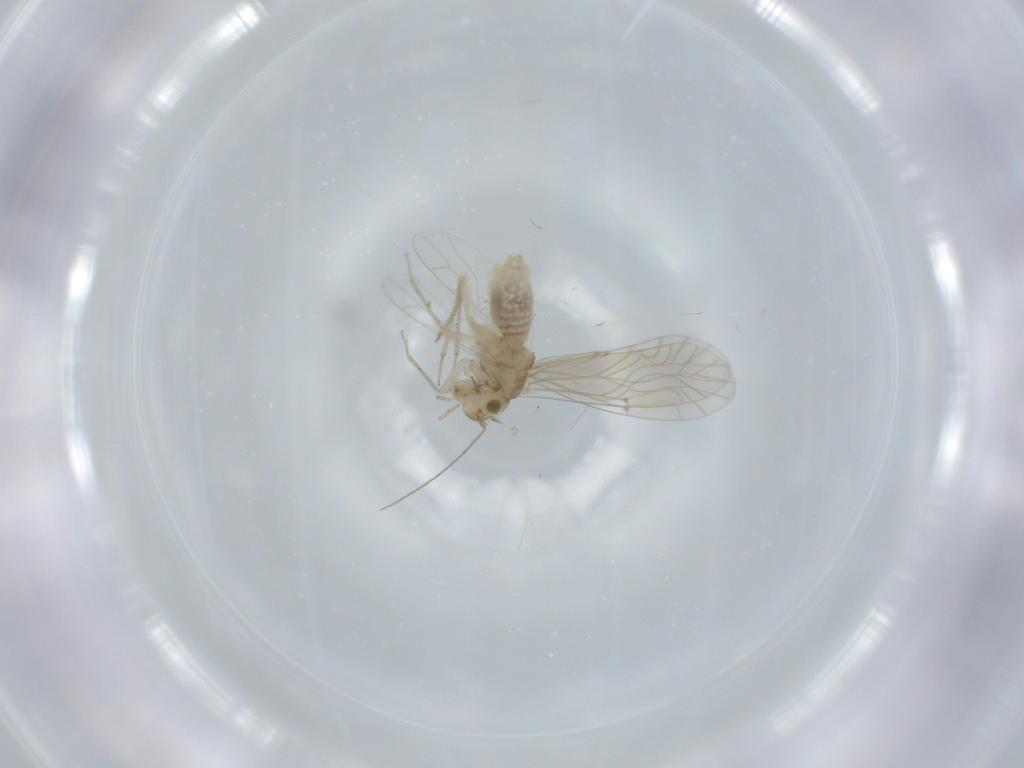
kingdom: Animalia
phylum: Arthropoda
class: Insecta
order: Psocodea
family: Lachesillidae
